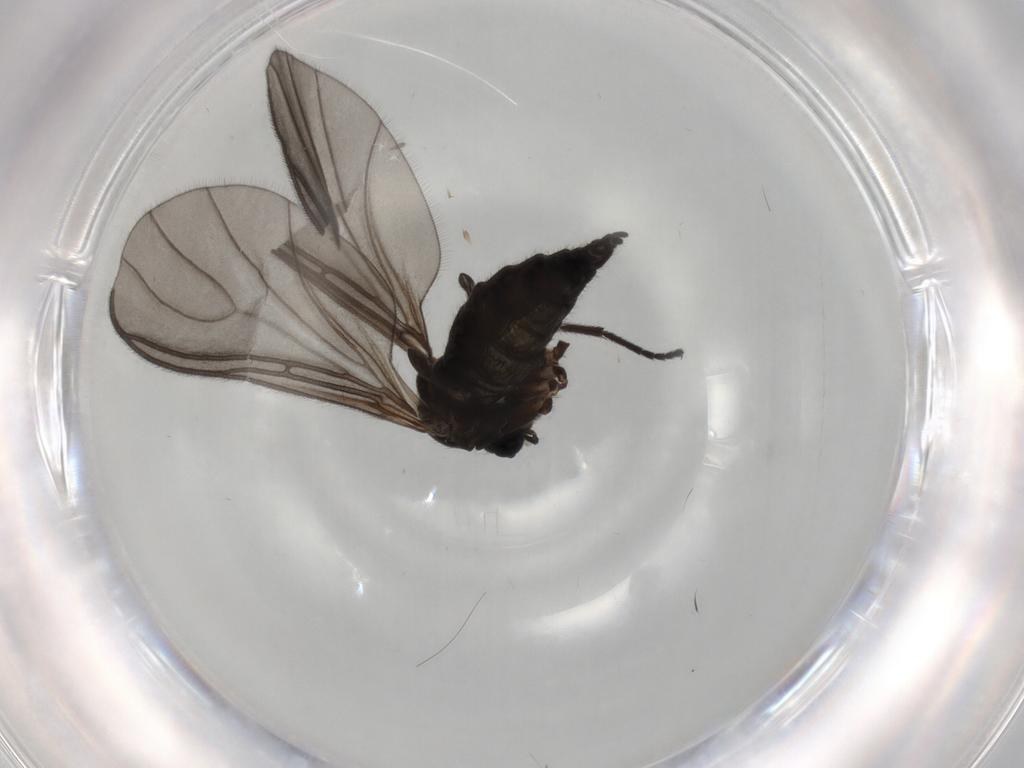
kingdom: Animalia
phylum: Arthropoda
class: Insecta
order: Diptera
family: Sciaridae
